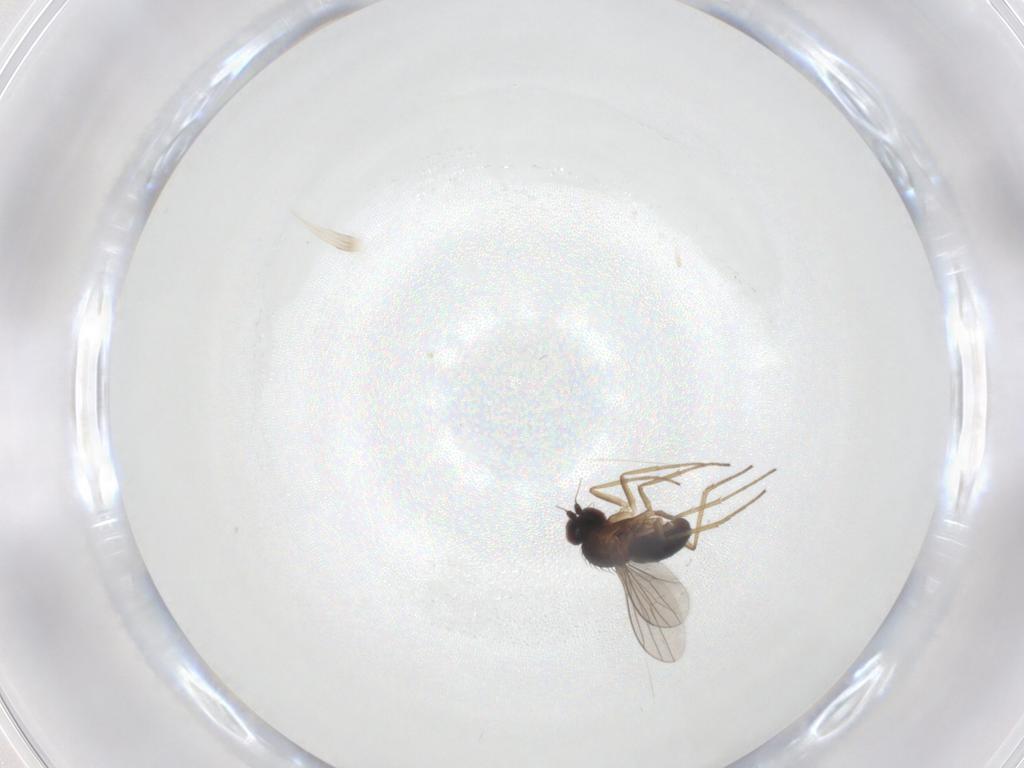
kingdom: Animalia
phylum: Arthropoda
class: Insecta
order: Diptera
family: Dolichopodidae
